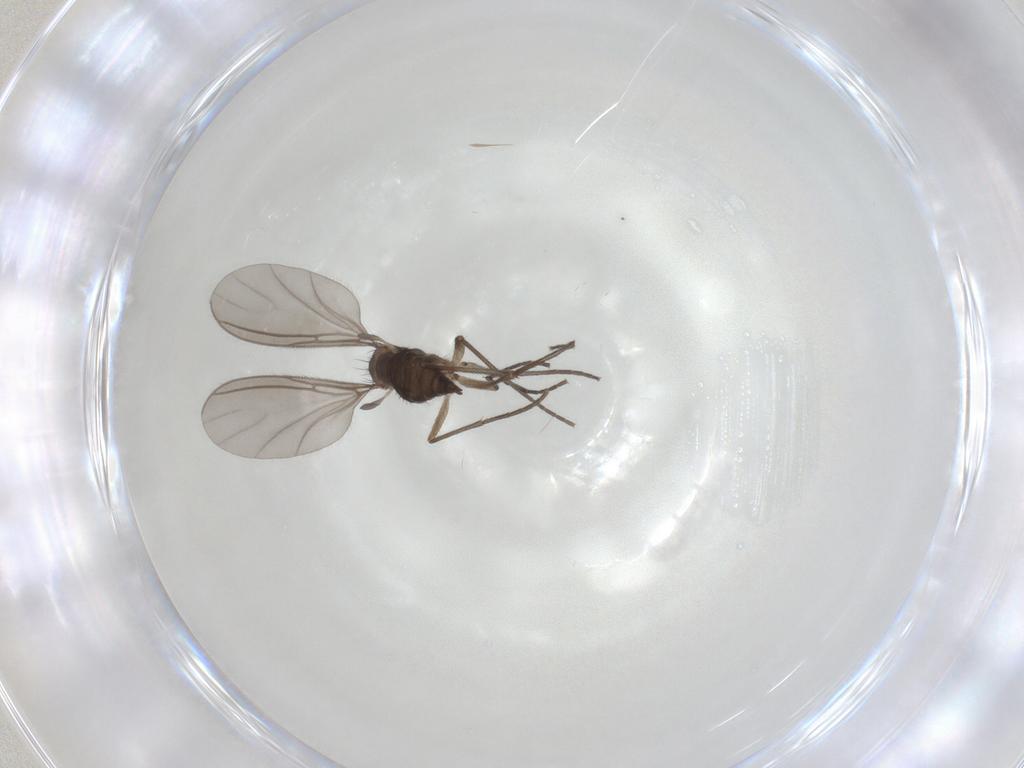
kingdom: Animalia
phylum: Arthropoda
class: Insecta
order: Diptera
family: Sciaridae
